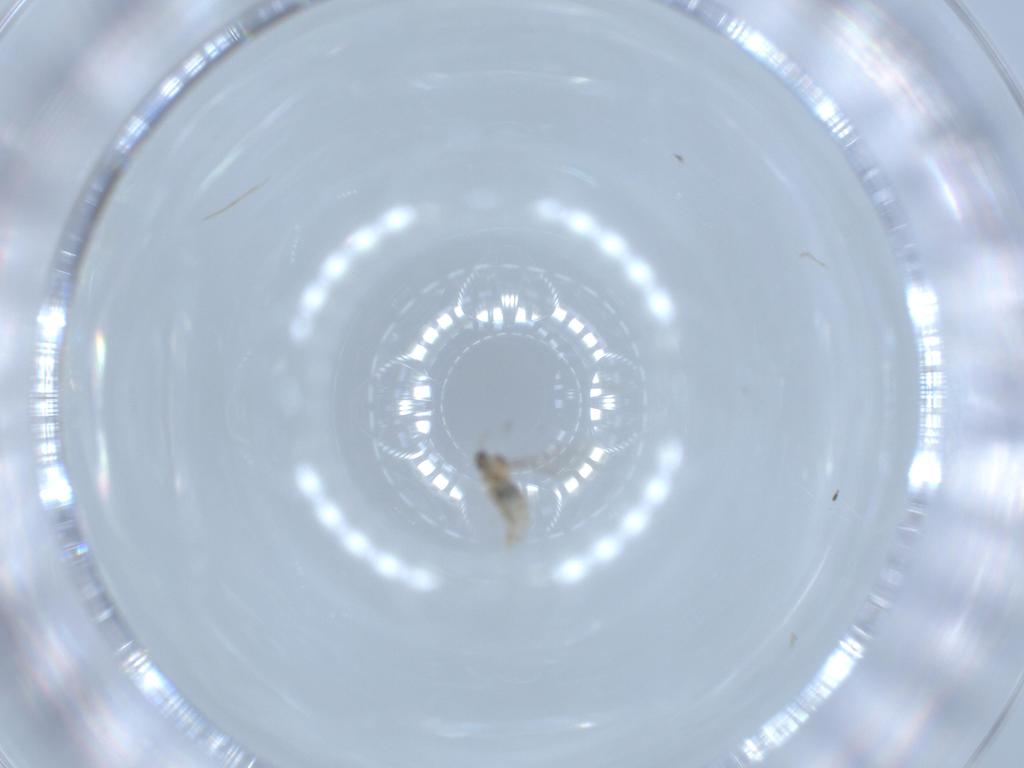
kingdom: Animalia
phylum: Arthropoda
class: Insecta
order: Diptera
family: Cecidomyiidae
